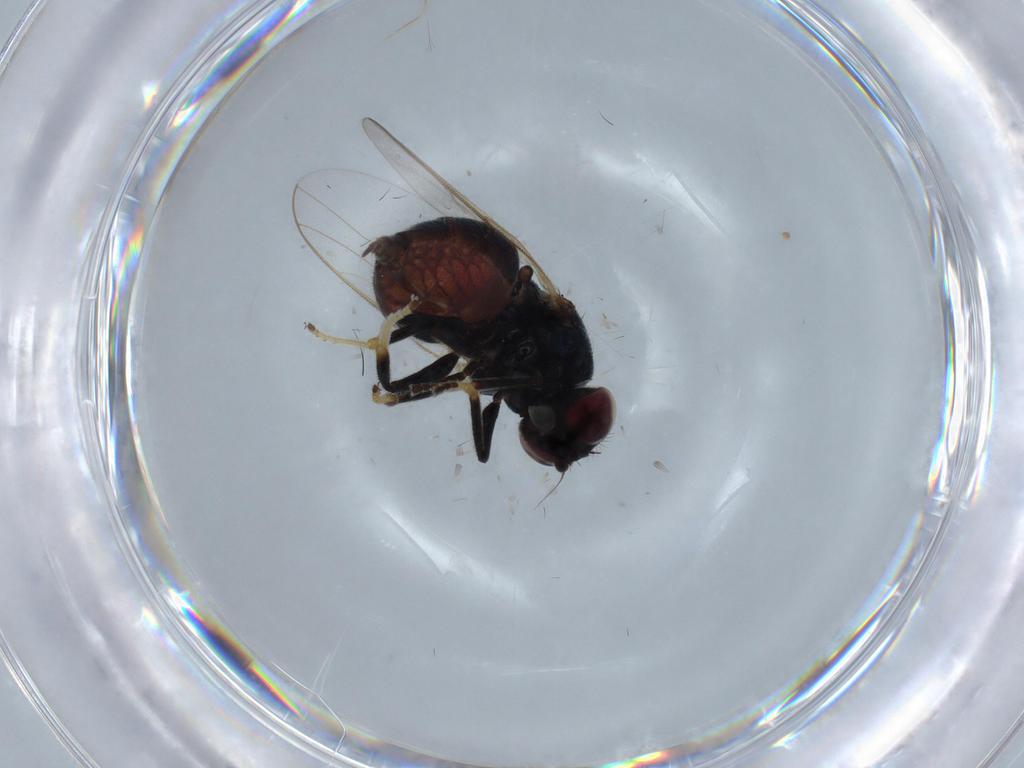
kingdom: Animalia
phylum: Arthropoda
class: Insecta
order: Diptera
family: Chloropidae
